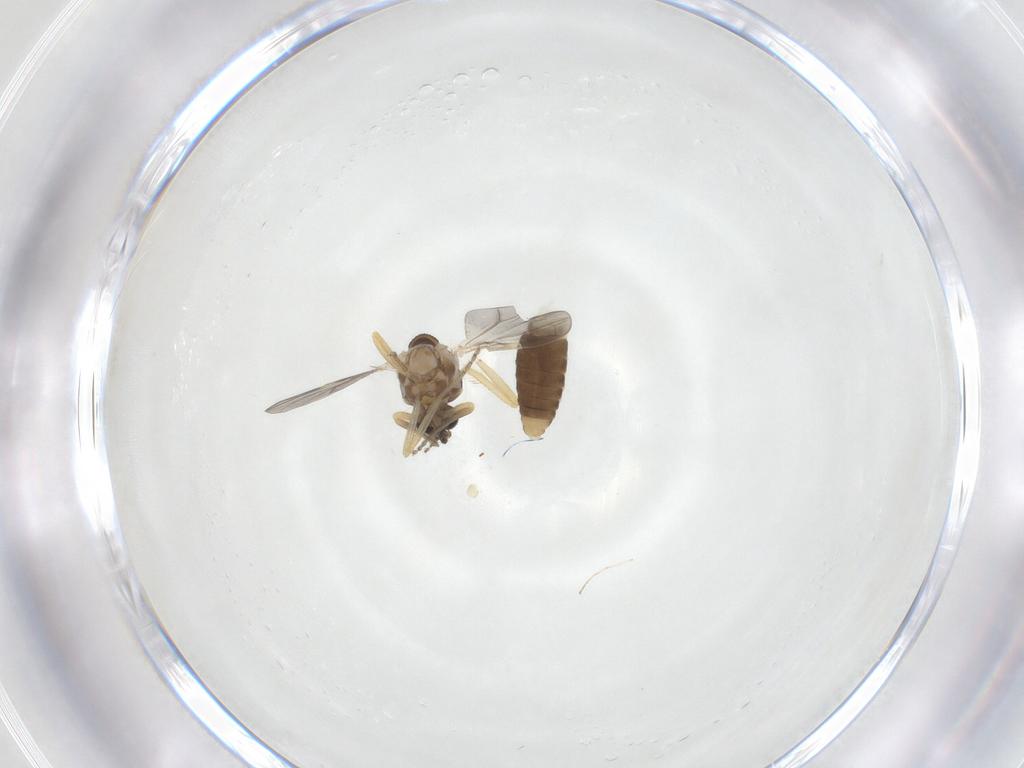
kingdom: Animalia
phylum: Arthropoda
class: Insecta
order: Diptera
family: Ceratopogonidae
